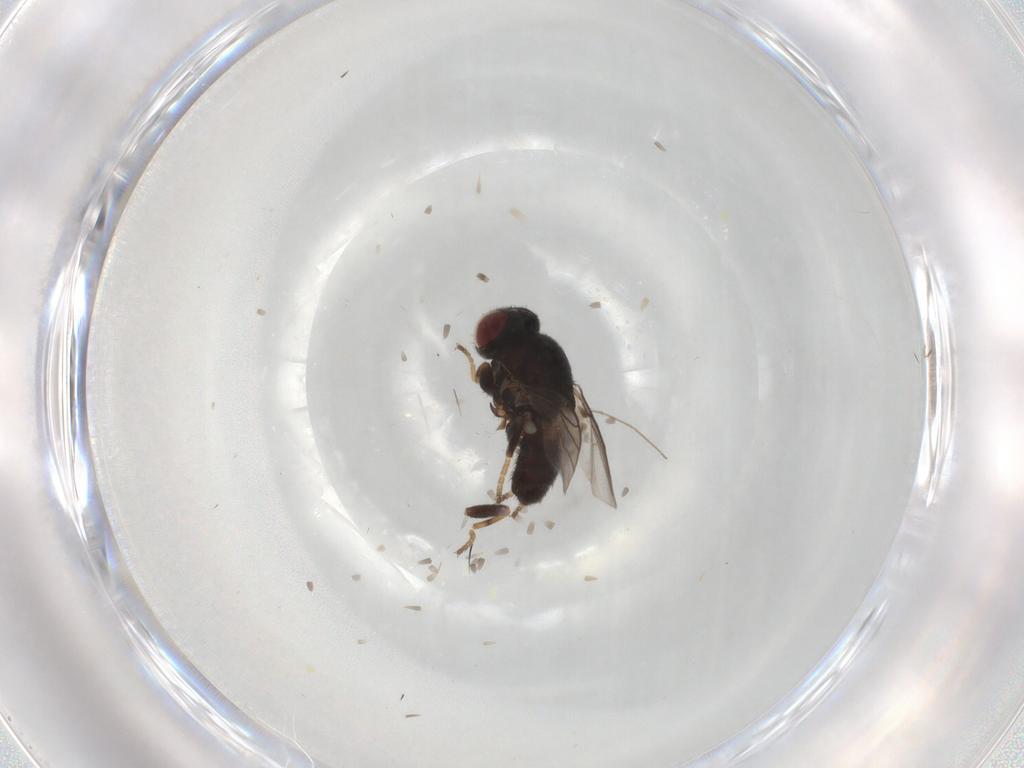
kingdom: Animalia
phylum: Arthropoda
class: Insecta
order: Diptera
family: Chloropidae
